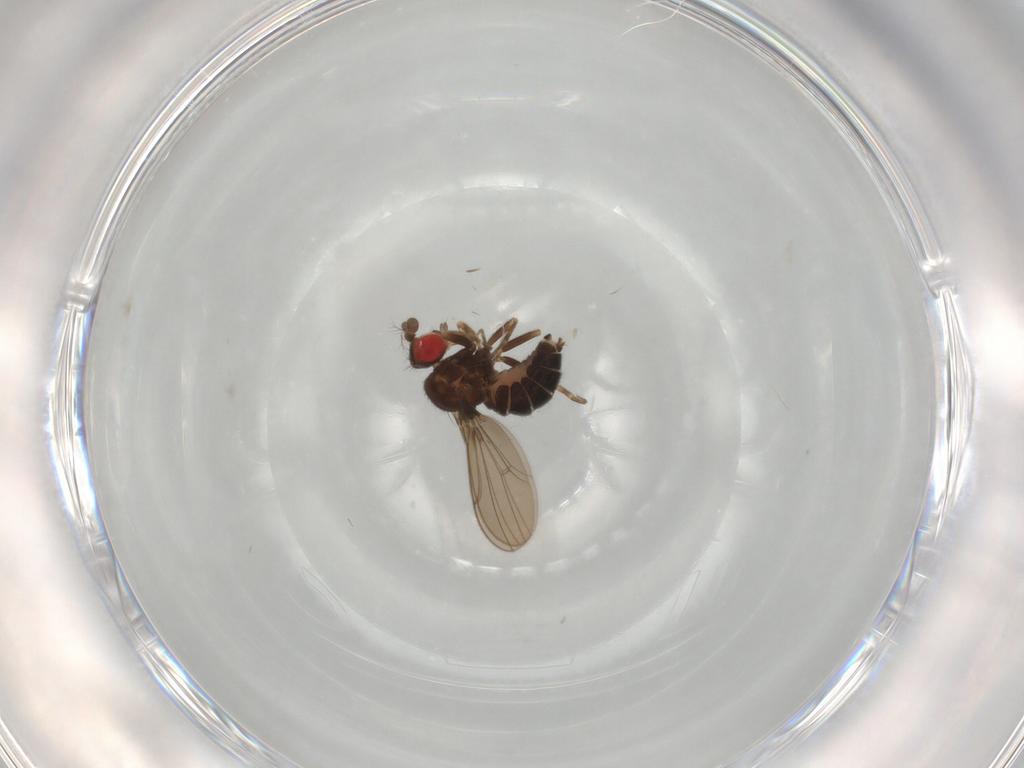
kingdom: Animalia
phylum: Arthropoda
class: Insecta
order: Diptera
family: Drosophilidae
